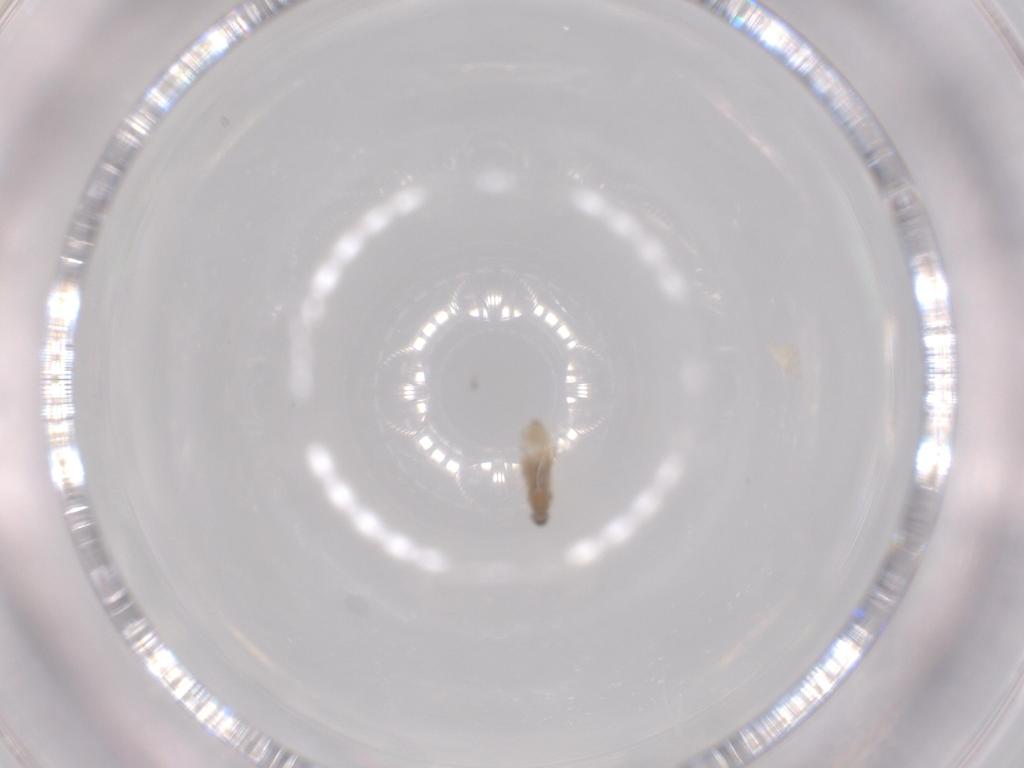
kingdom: Animalia
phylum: Arthropoda
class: Insecta
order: Diptera
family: Cecidomyiidae
